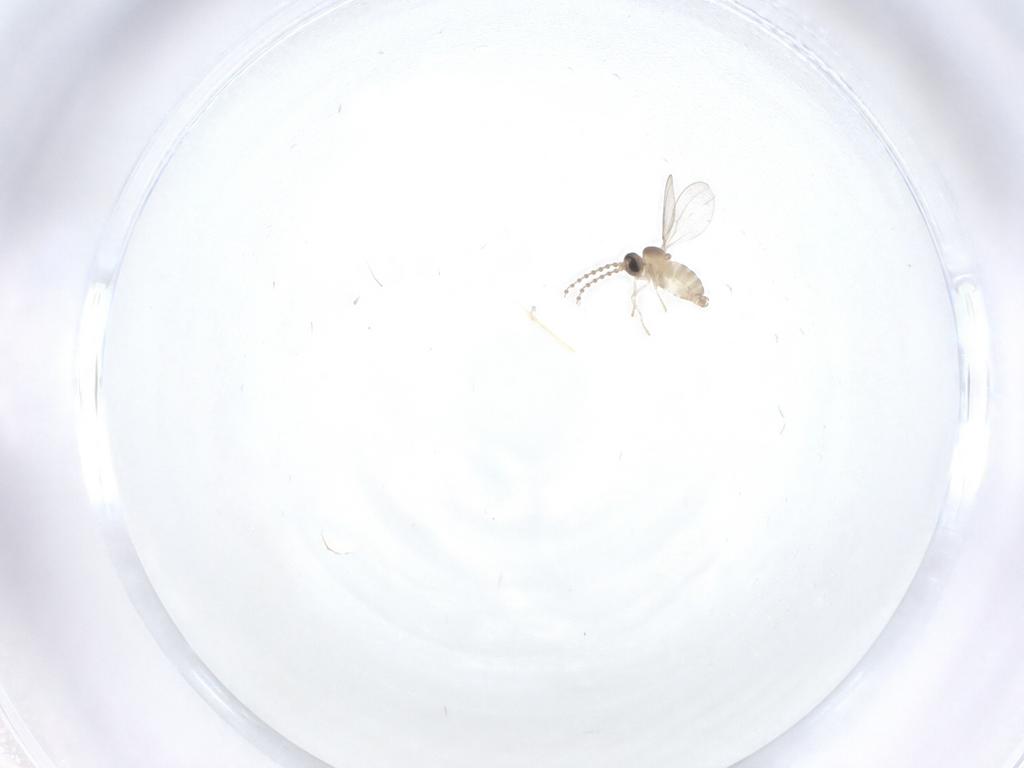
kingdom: Animalia
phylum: Arthropoda
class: Insecta
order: Diptera
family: Cecidomyiidae
